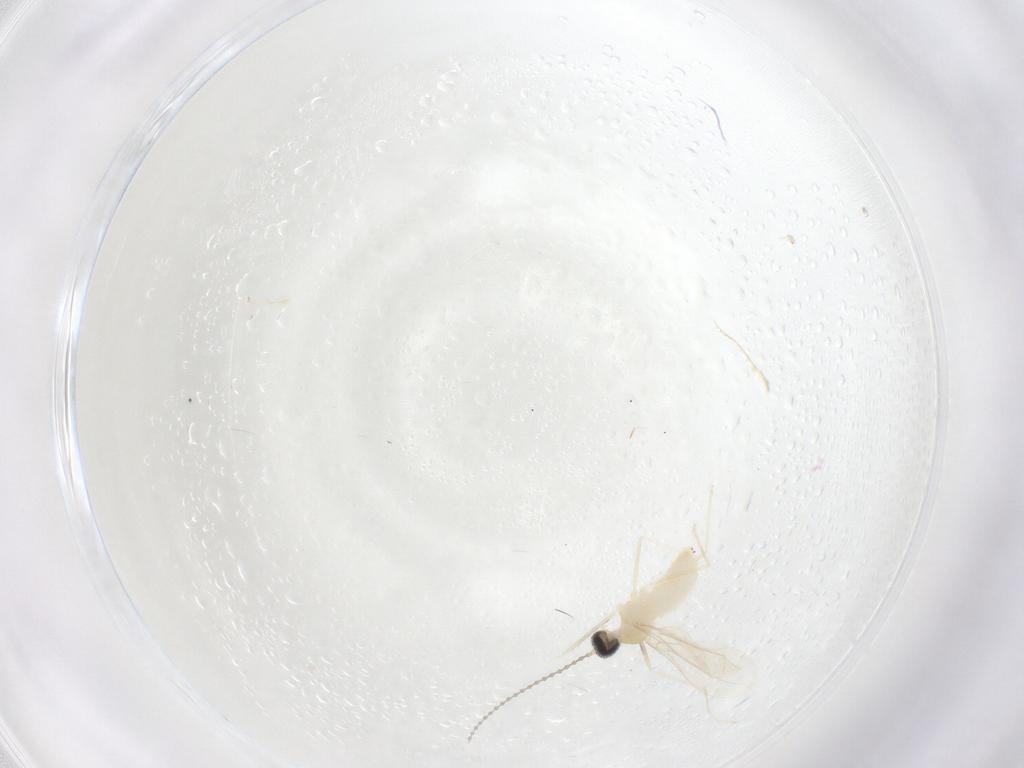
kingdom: Animalia
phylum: Arthropoda
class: Insecta
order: Diptera
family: Cecidomyiidae
